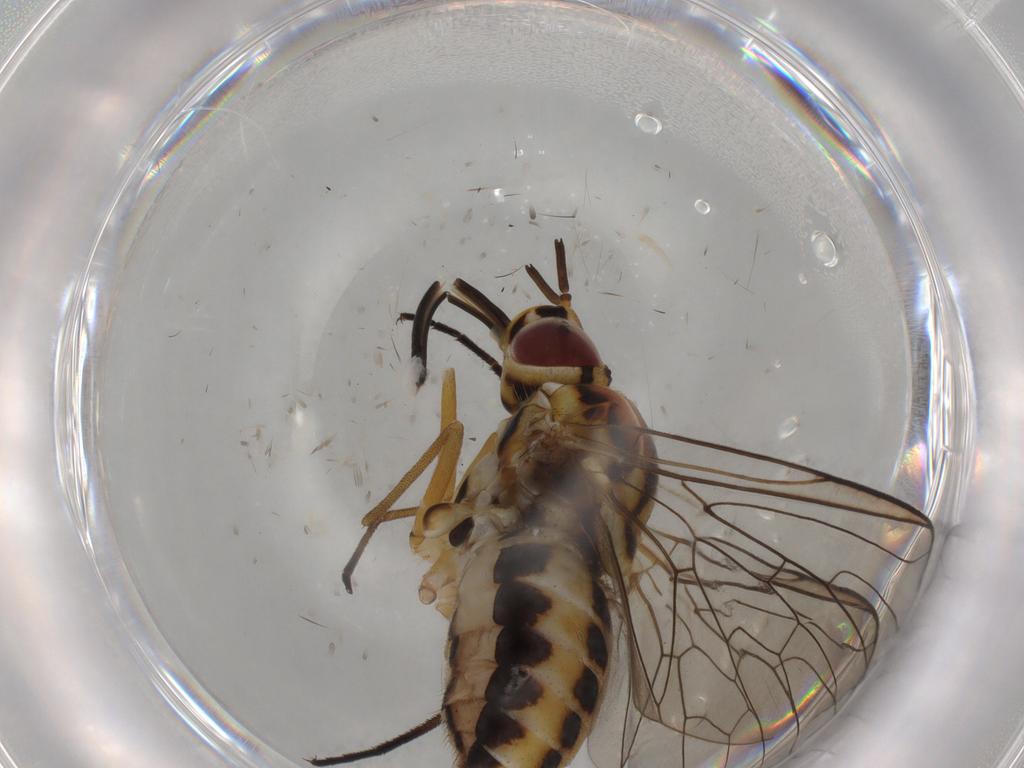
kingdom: Animalia
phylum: Arthropoda
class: Insecta
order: Diptera
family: Bombyliidae
